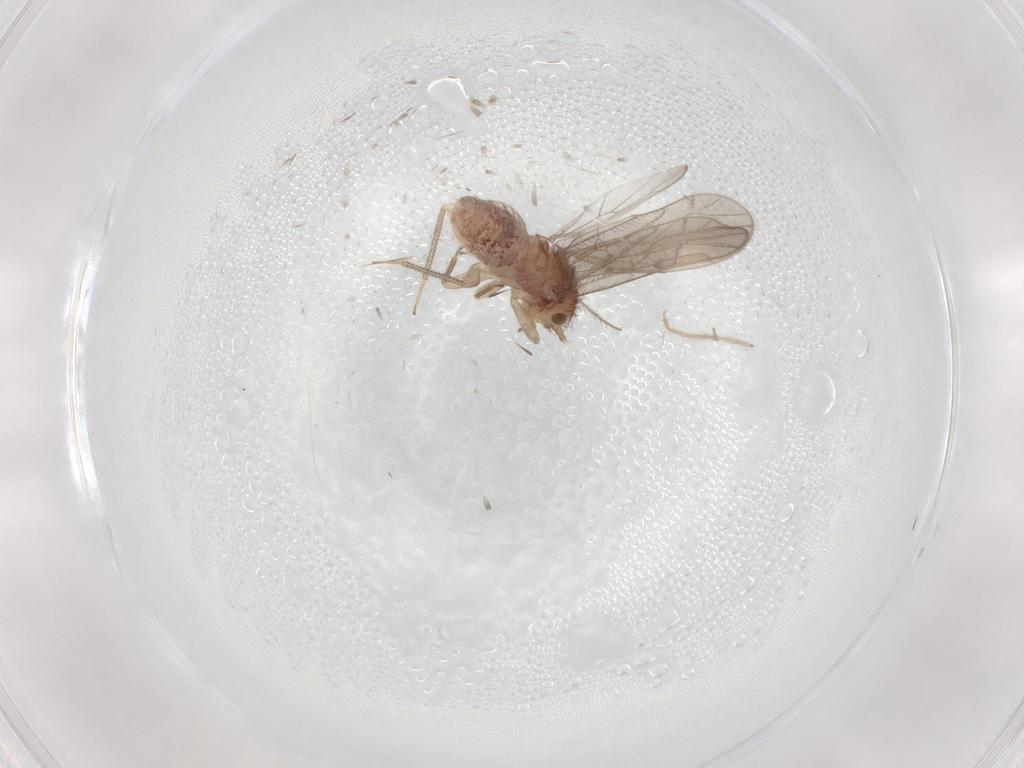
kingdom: Animalia
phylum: Arthropoda
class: Insecta
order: Psocodea
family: Ectopsocidae
